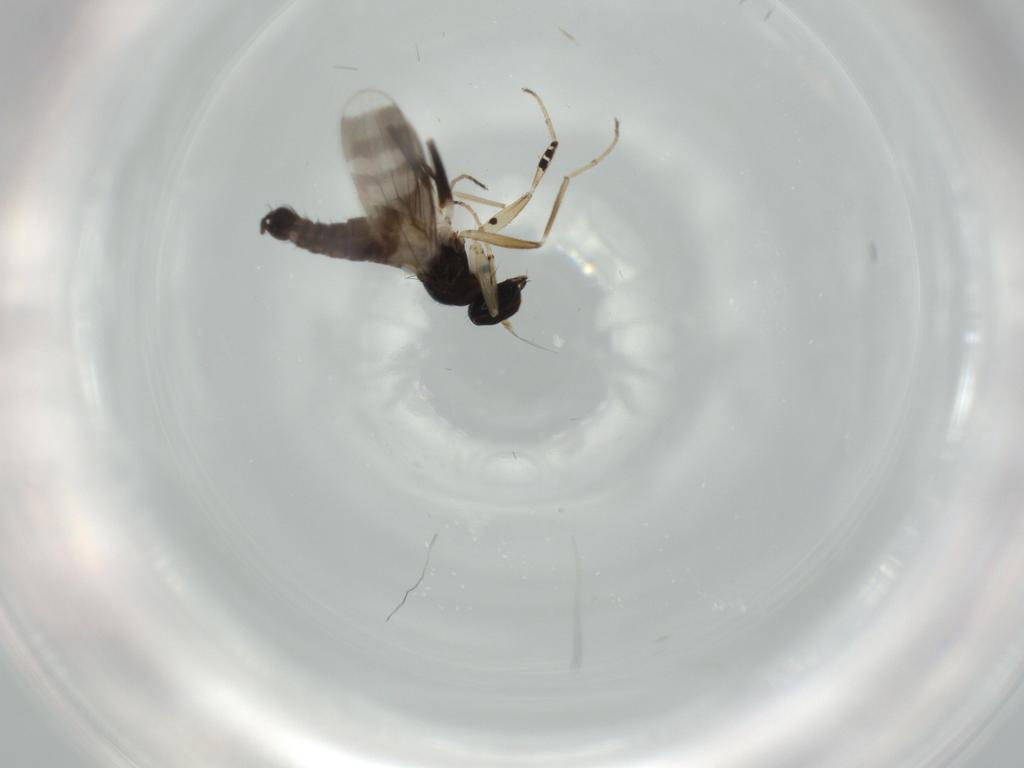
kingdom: Animalia
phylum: Arthropoda
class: Insecta
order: Diptera
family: Hybotidae
